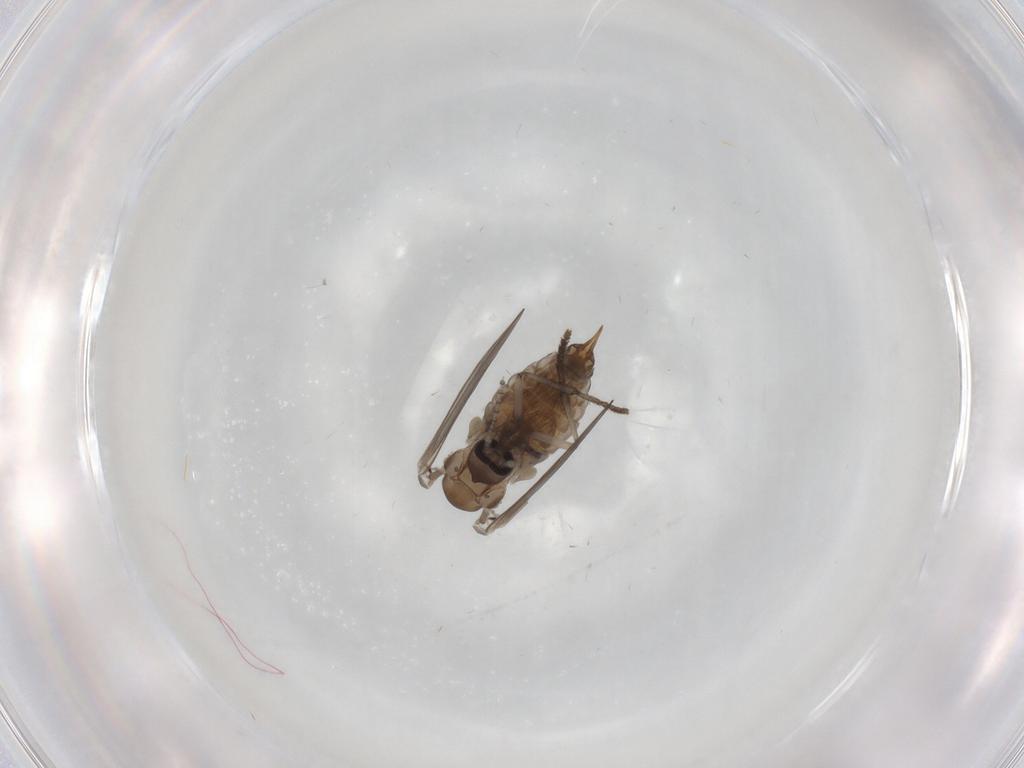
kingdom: Animalia
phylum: Arthropoda
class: Insecta
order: Diptera
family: Psychodidae
